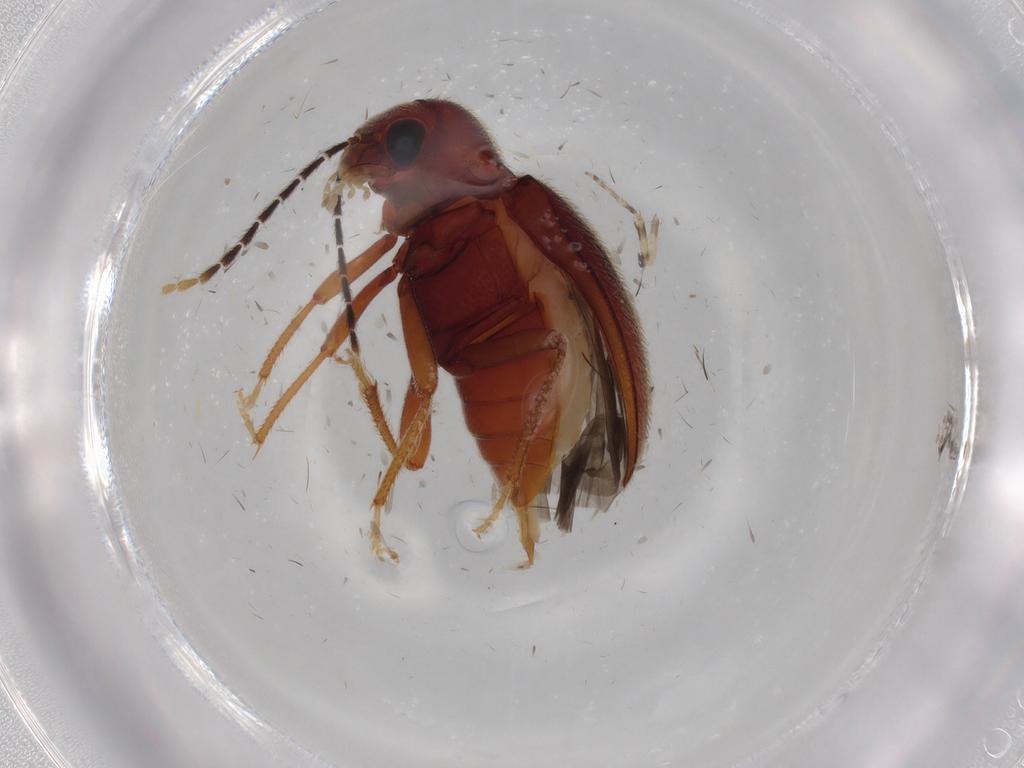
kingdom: Animalia
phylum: Arthropoda
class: Insecta
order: Coleoptera
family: Ptilodactylidae
